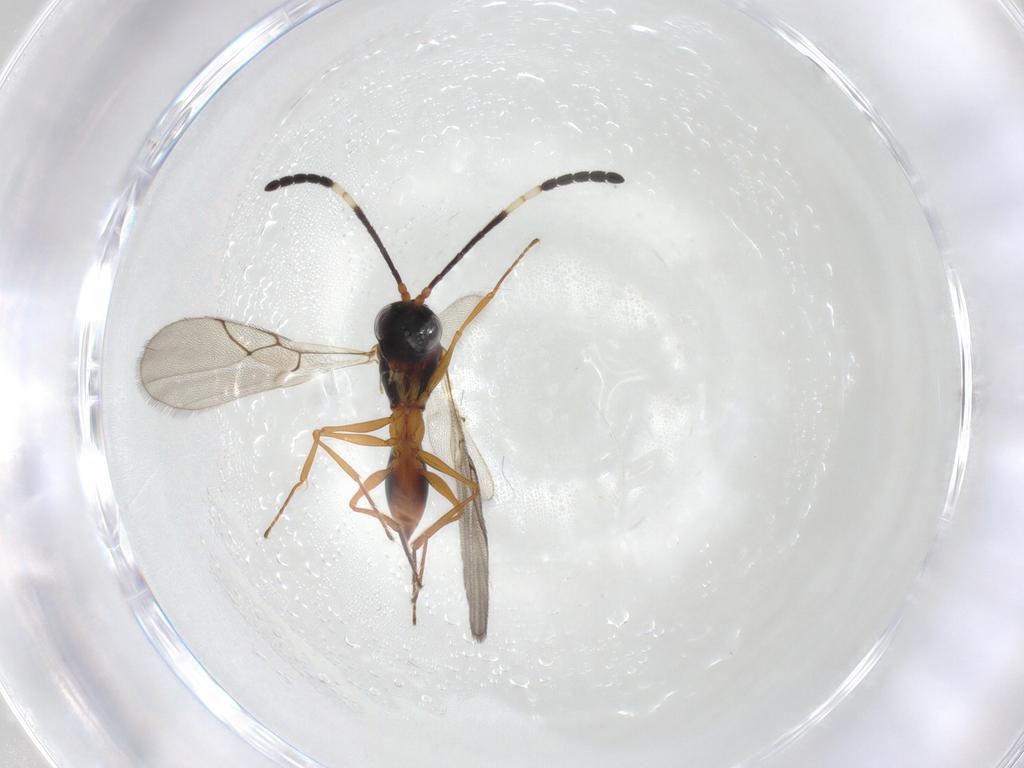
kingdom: Animalia
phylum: Arthropoda
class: Insecta
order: Hymenoptera
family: Figitidae
